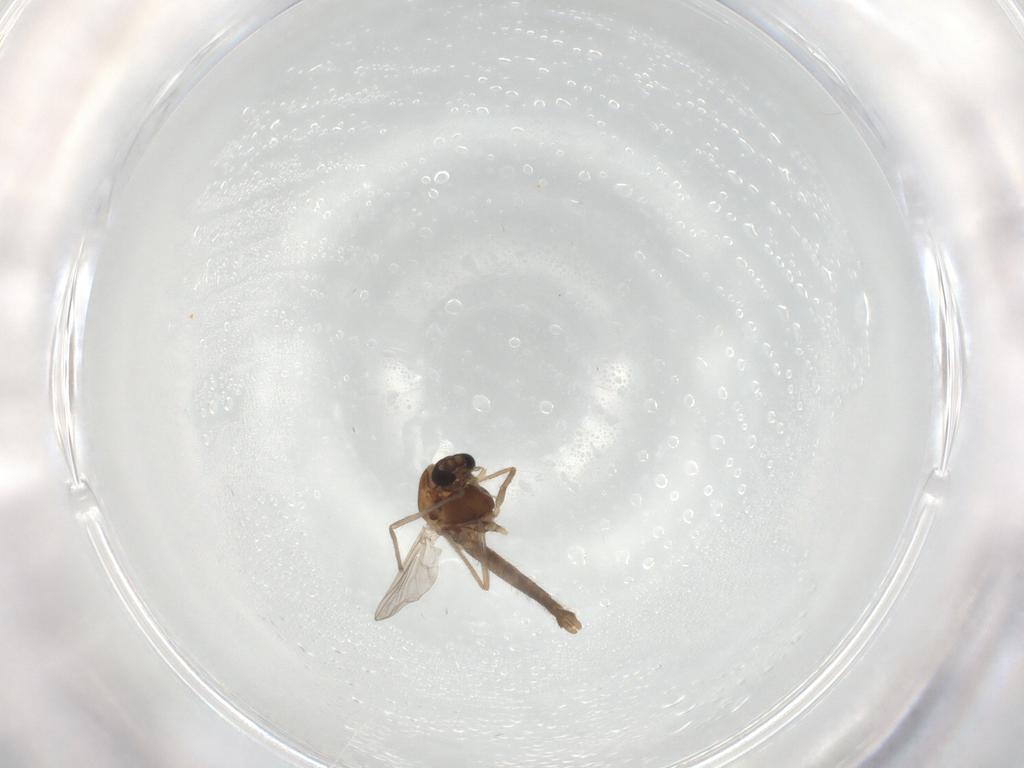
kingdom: Animalia
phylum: Arthropoda
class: Insecta
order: Diptera
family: Chironomidae
